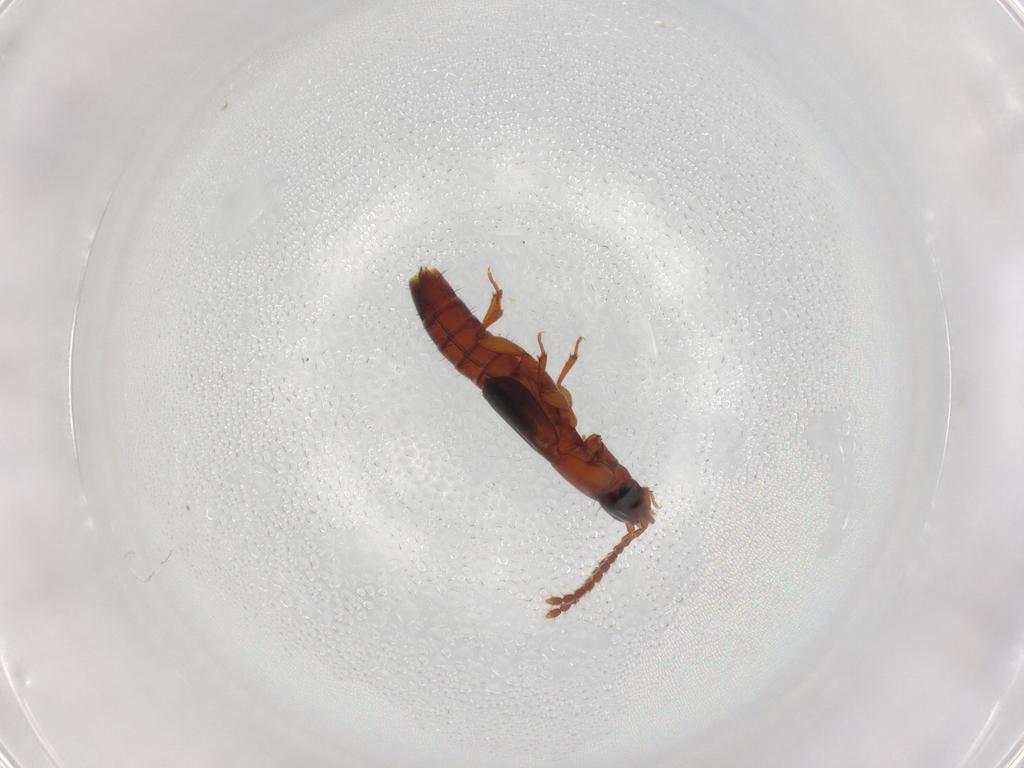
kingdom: Animalia
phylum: Arthropoda
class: Insecta
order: Coleoptera
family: Staphylinidae
